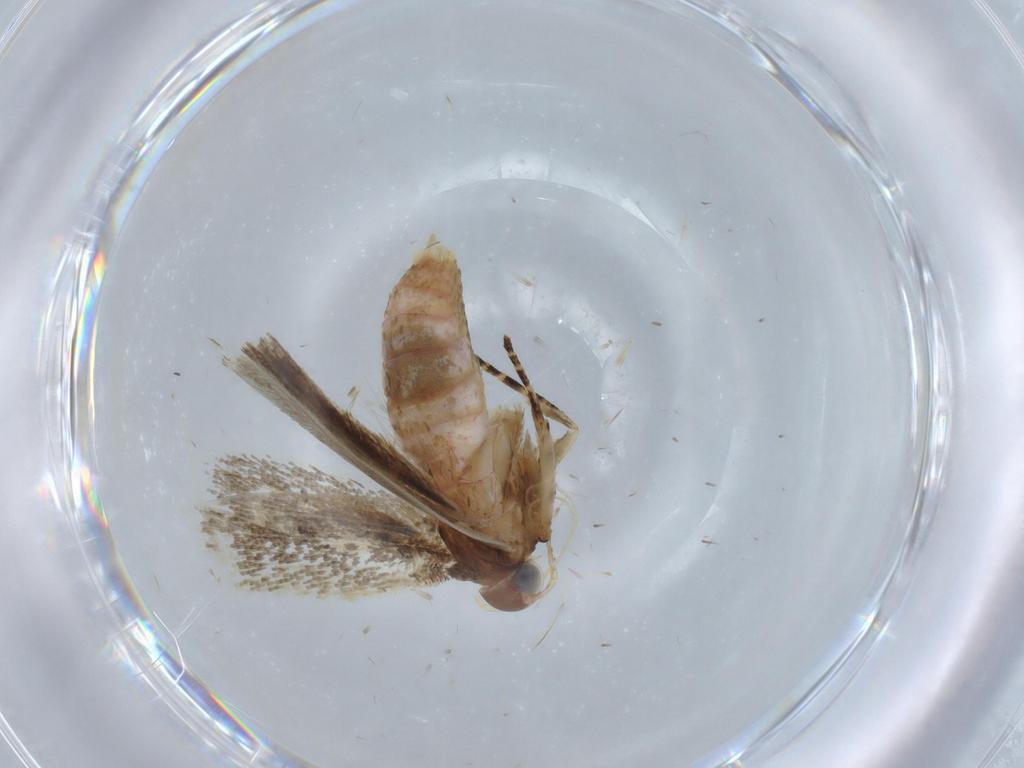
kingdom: Animalia
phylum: Arthropoda
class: Insecta
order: Lepidoptera
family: Gelechiidae
